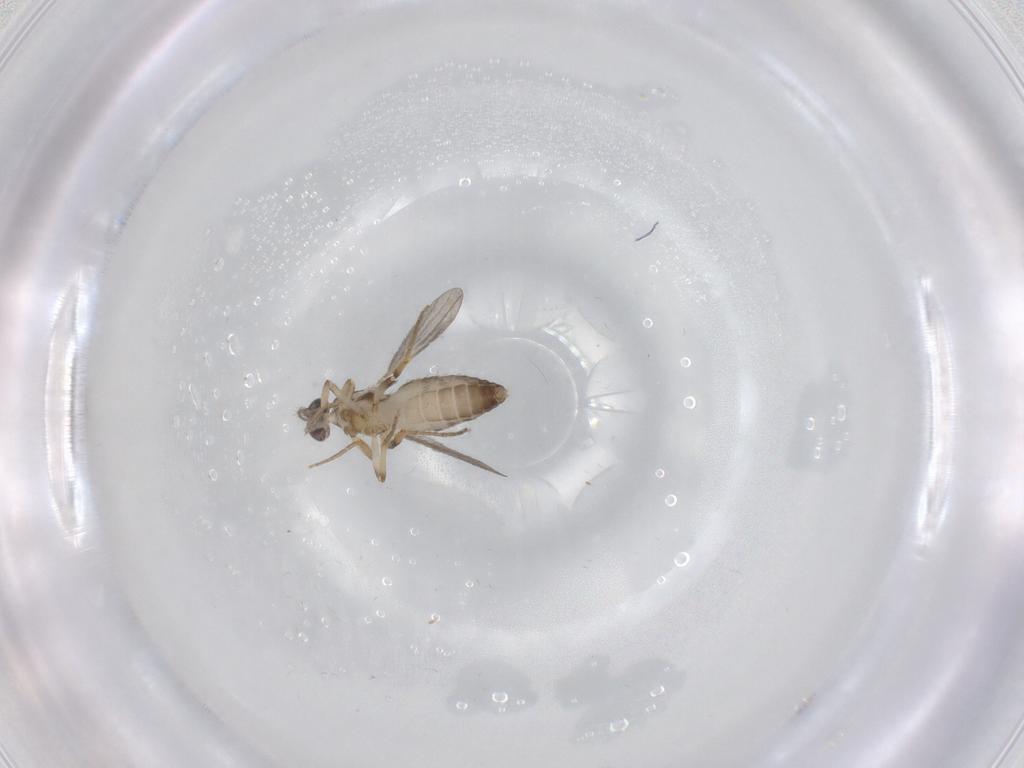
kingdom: Animalia
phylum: Arthropoda
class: Insecta
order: Diptera
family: Ceratopogonidae
